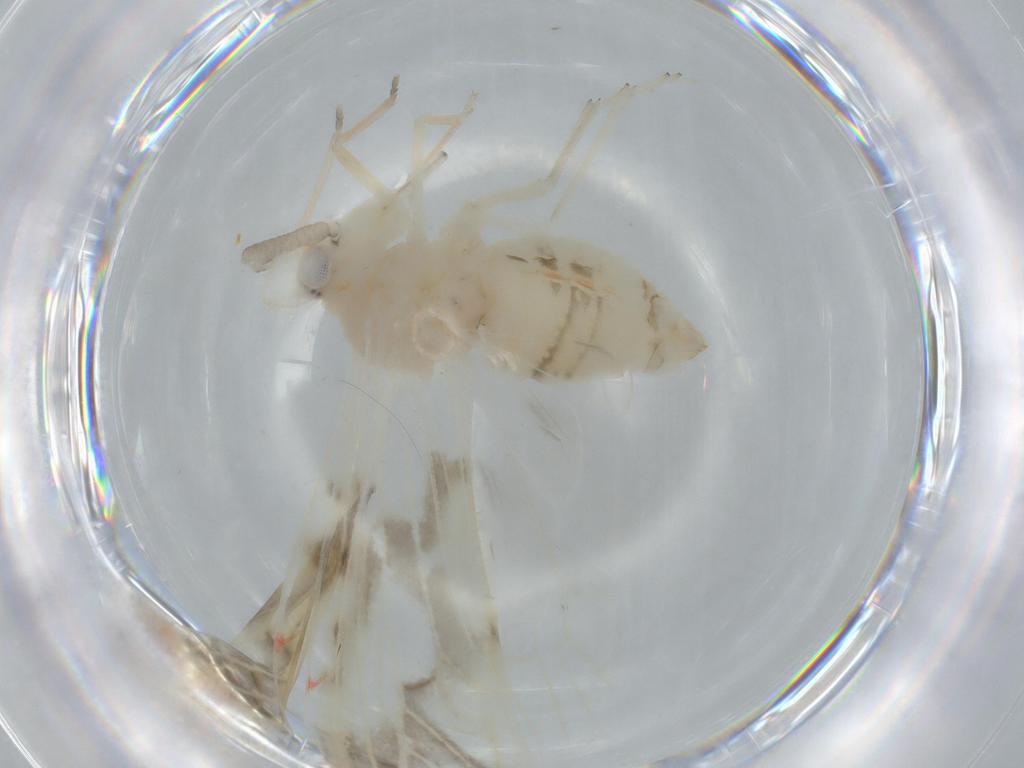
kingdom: Animalia
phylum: Arthropoda
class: Insecta
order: Hemiptera
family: Derbidae
